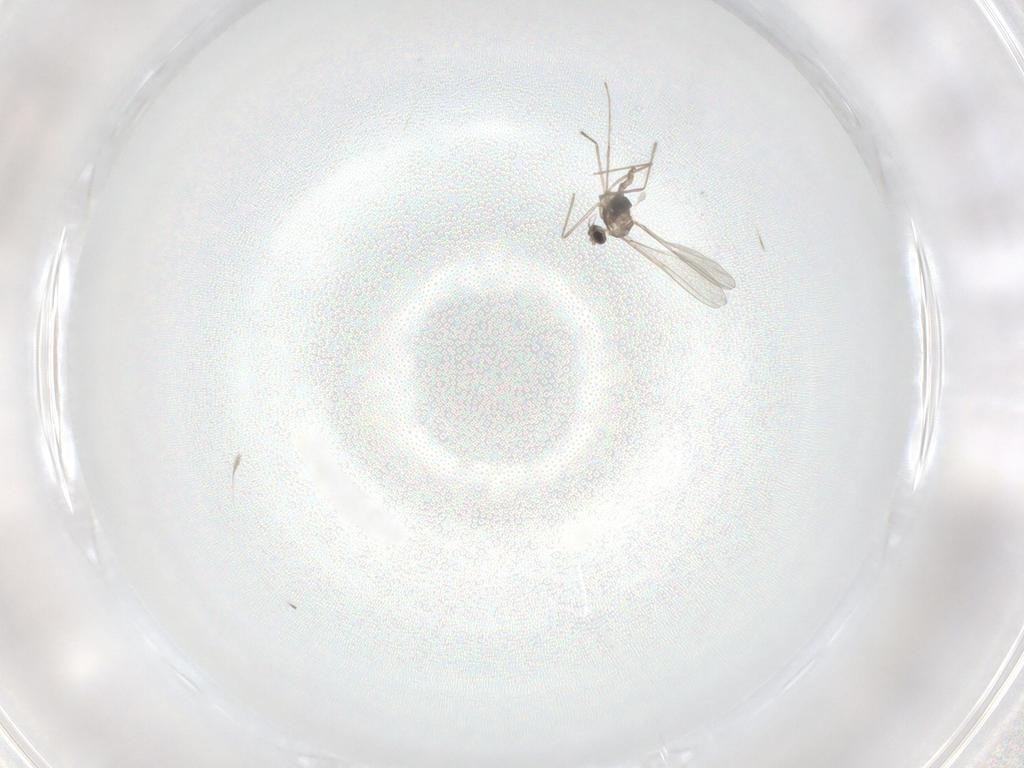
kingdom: Animalia
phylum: Arthropoda
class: Insecta
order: Diptera
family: Cecidomyiidae
